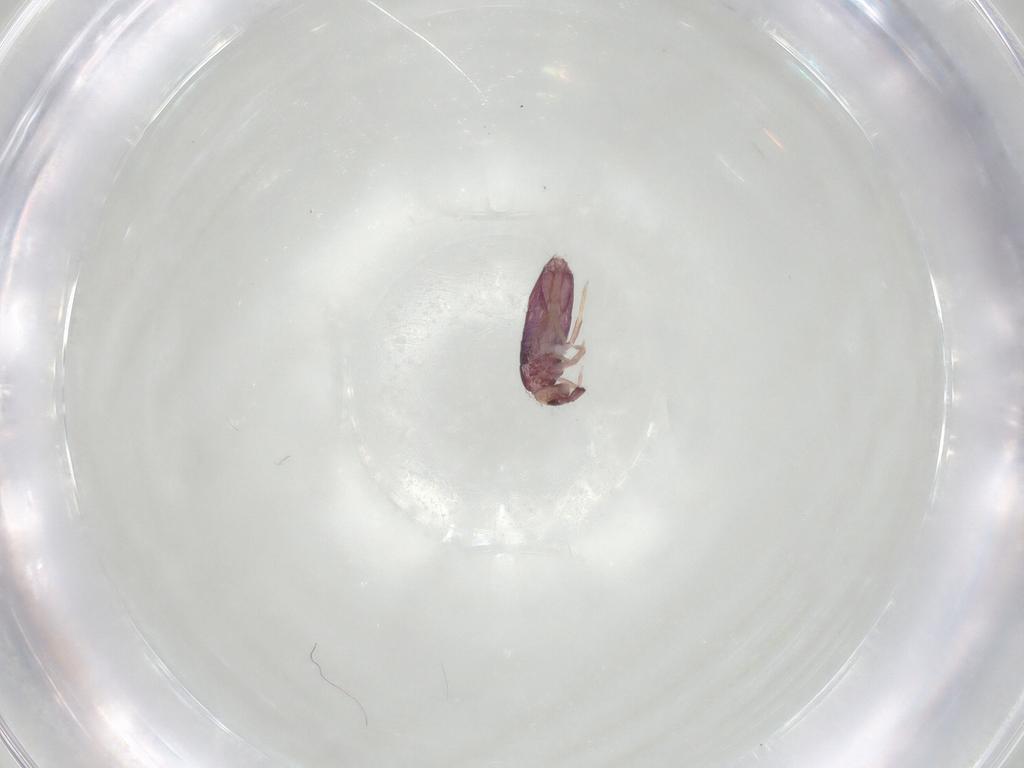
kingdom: Animalia
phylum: Arthropoda
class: Collembola
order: Entomobryomorpha
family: Entomobryidae
